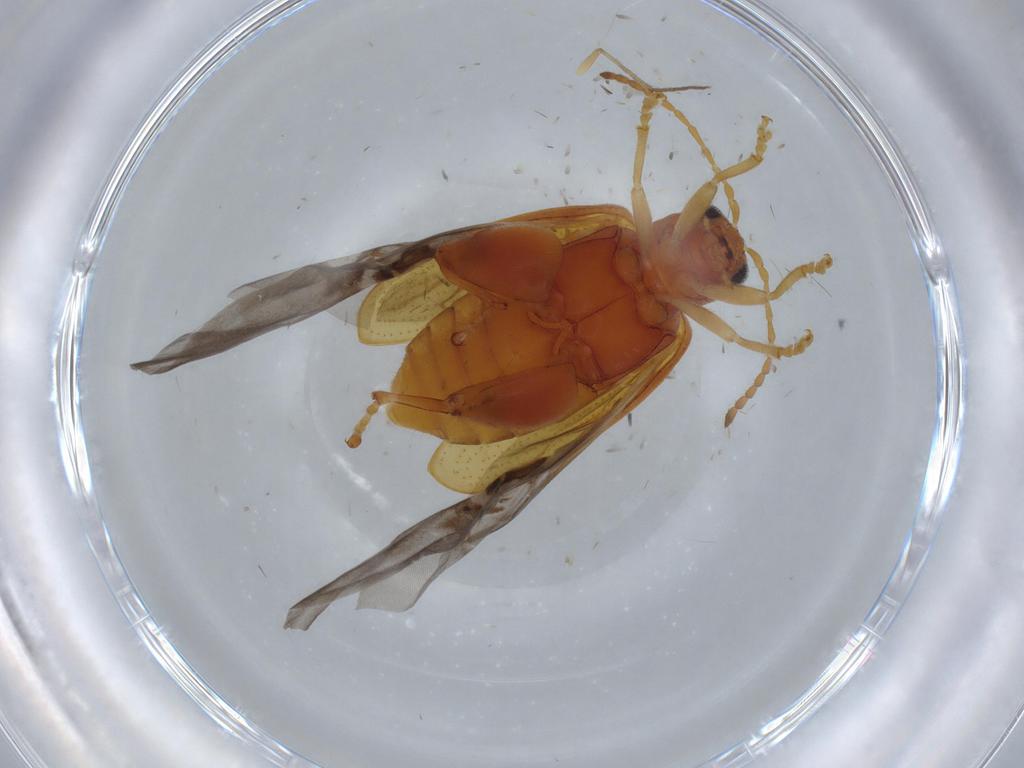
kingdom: Animalia
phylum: Arthropoda
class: Insecta
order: Coleoptera
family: Chrysomelidae
